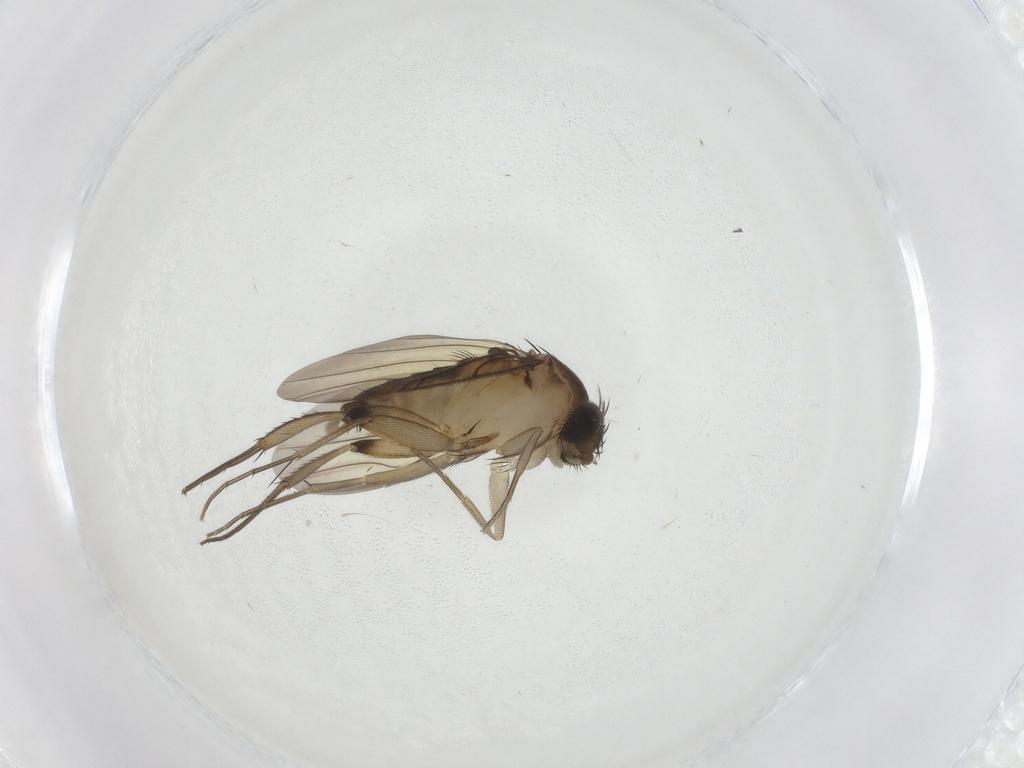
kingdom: Animalia
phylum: Arthropoda
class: Insecta
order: Diptera
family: Phoridae
